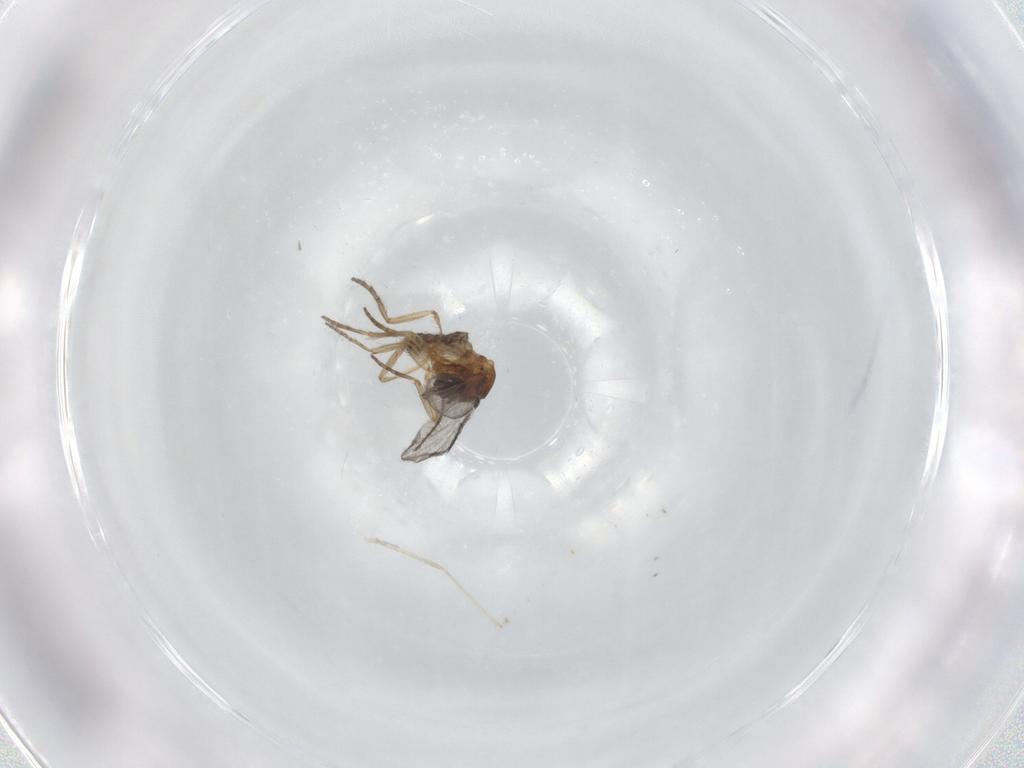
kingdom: Animalia
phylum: Arthropoda
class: Insecta
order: Diptera
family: Ceratopogonidae
